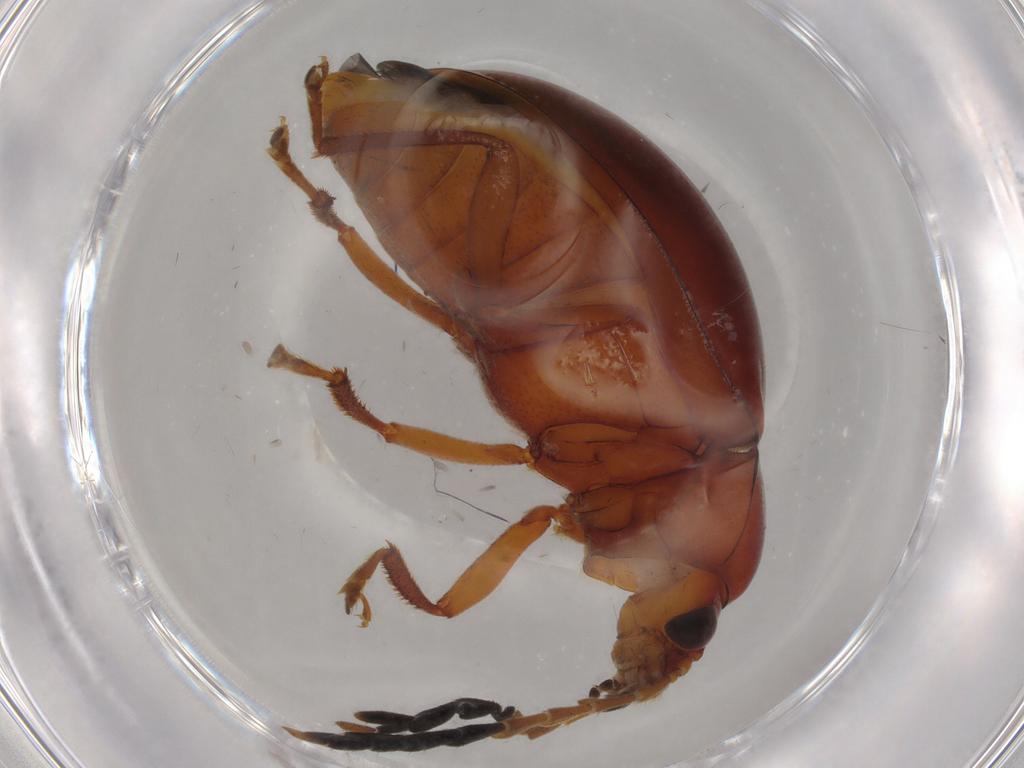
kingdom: Animalia
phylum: Arthropoda
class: Insecta
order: Coleoptera
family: Ptilodactylidae
